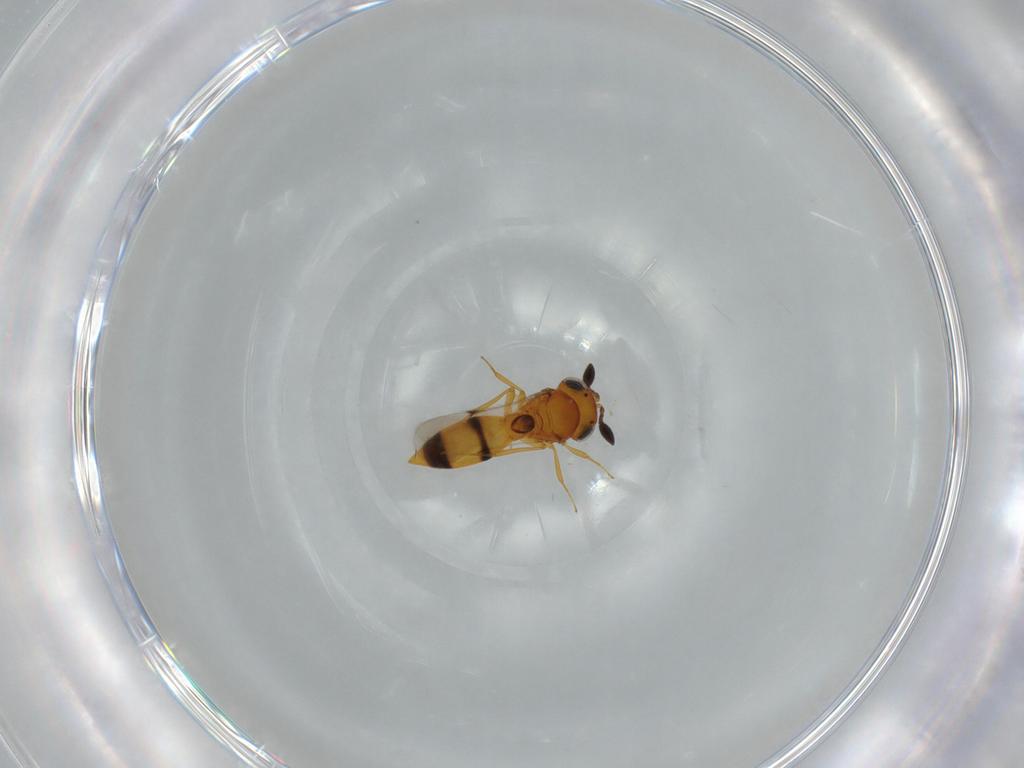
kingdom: Animalia
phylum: Arthropoda
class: Insecta
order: Hymenoptera
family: Scelionidae
